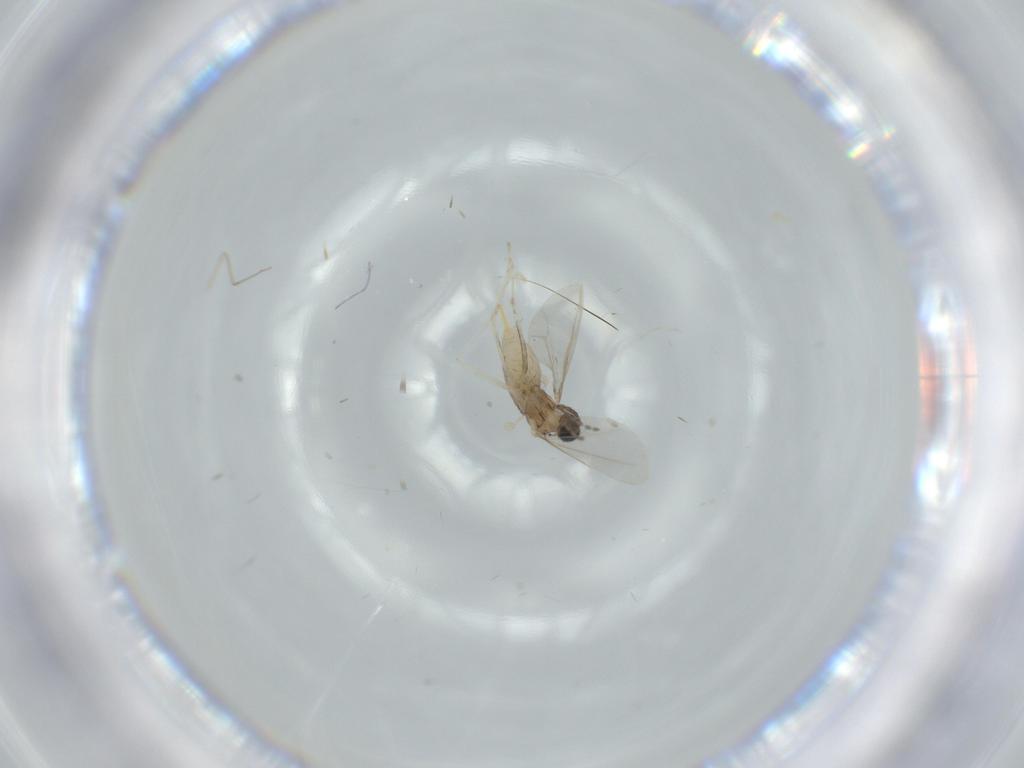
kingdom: Animalia
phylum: Arthropoda
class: Insecta
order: Diptera
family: Cecidomyiidae
